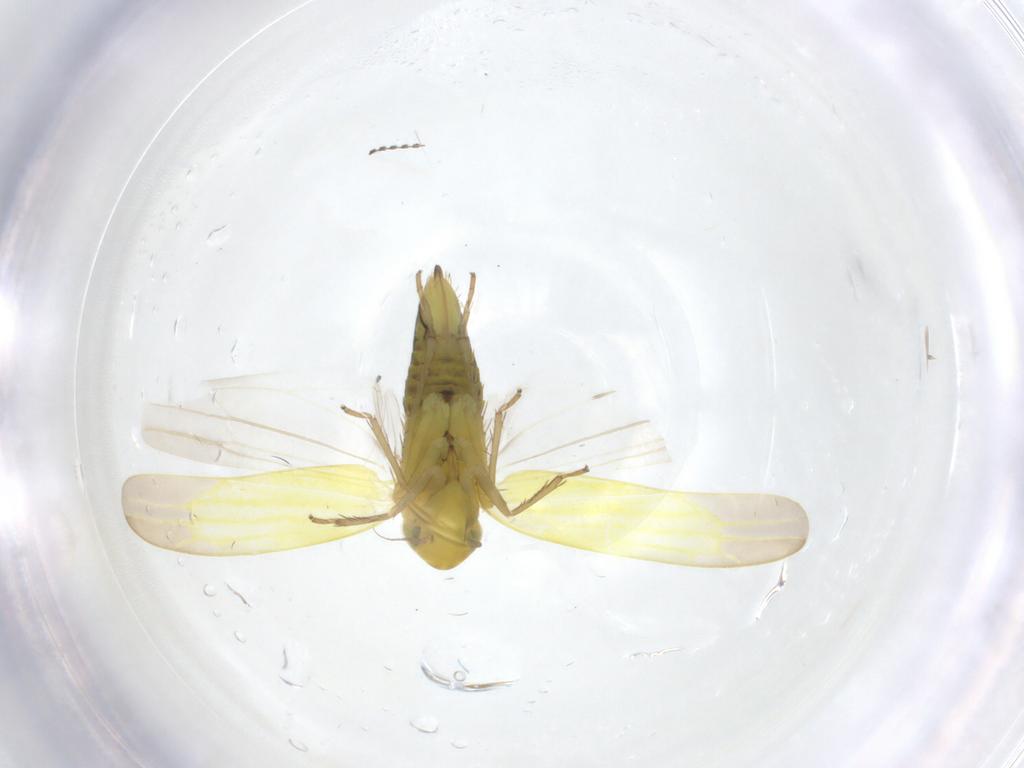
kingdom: Animalia
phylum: Arthropoda
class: Insecta
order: Hemiptera
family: Cicadellidae
